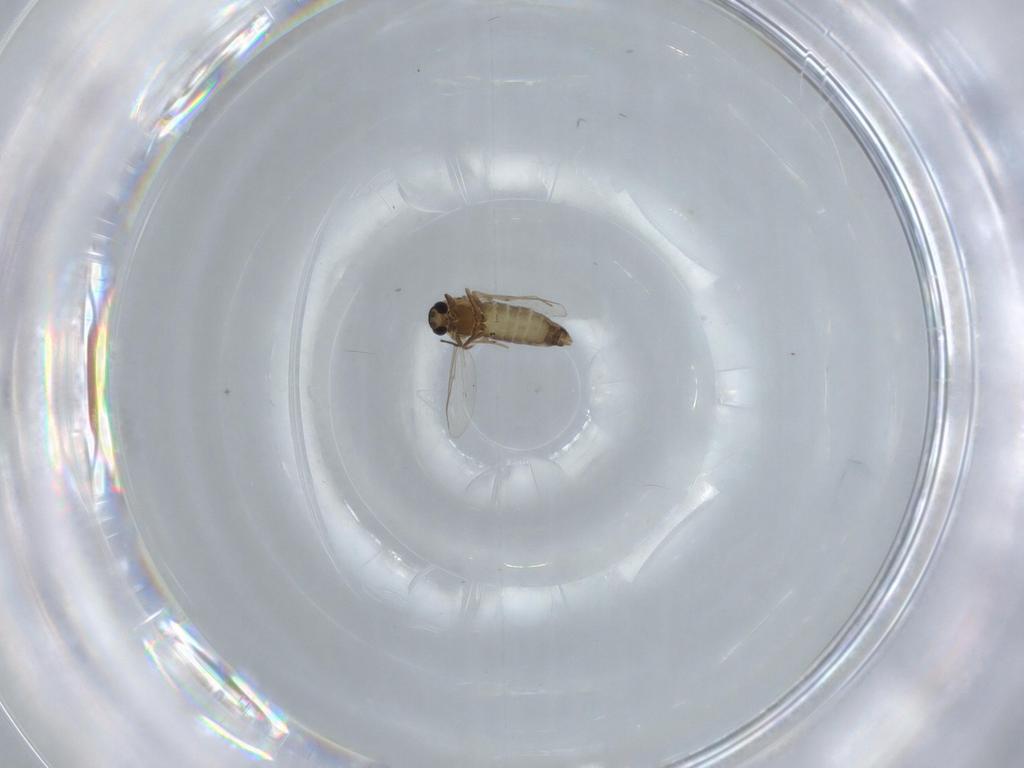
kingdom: Animalia
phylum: Arthropoda
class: Insecta
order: Diptera
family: Chironomidae
